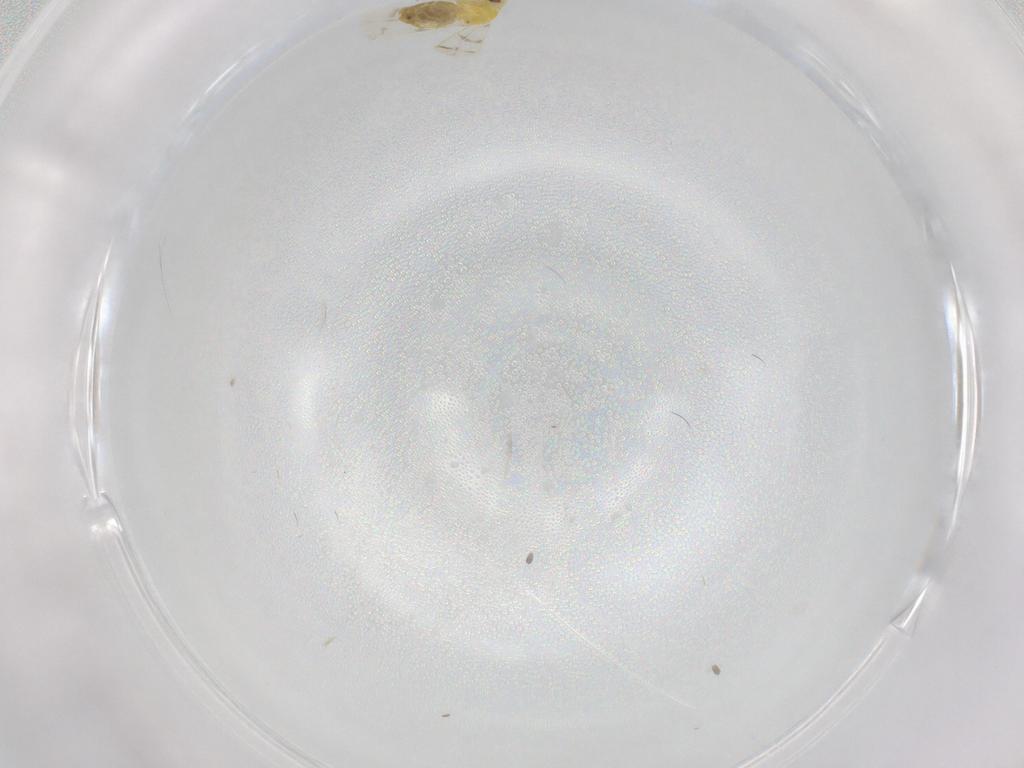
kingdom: Animalia
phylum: Arthropoda
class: Insecta
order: Hemiptera
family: Aleyrodidae
